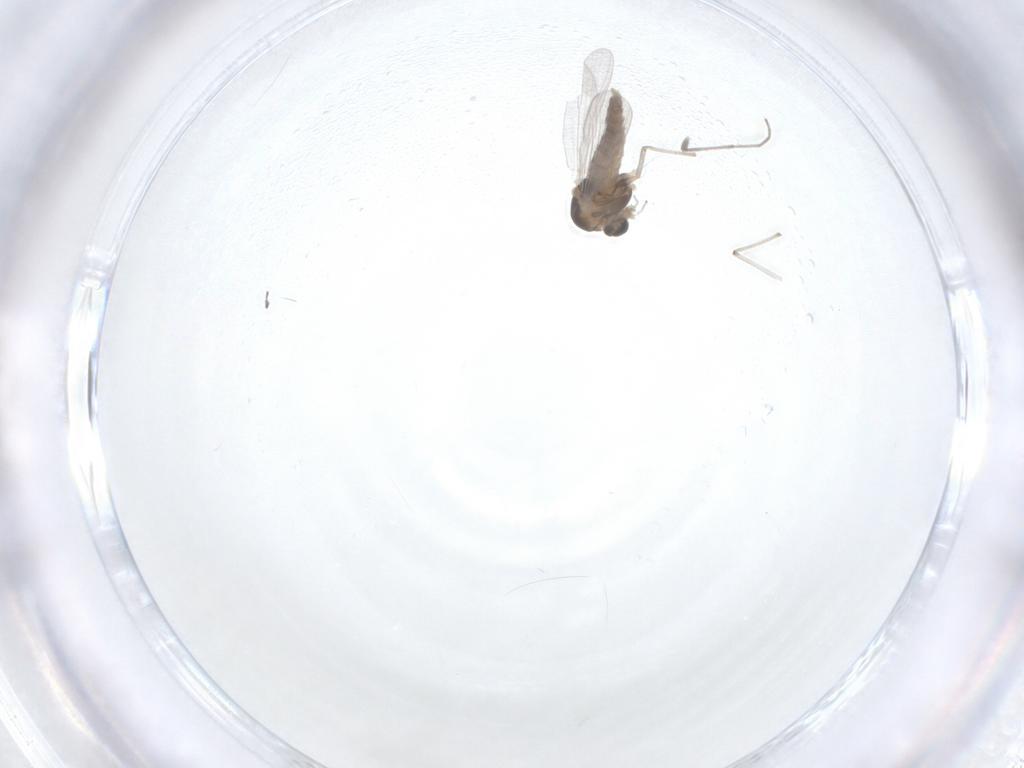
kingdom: Animalia
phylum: Arthropoda
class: Insecta
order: Diptera
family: Chironomidae
